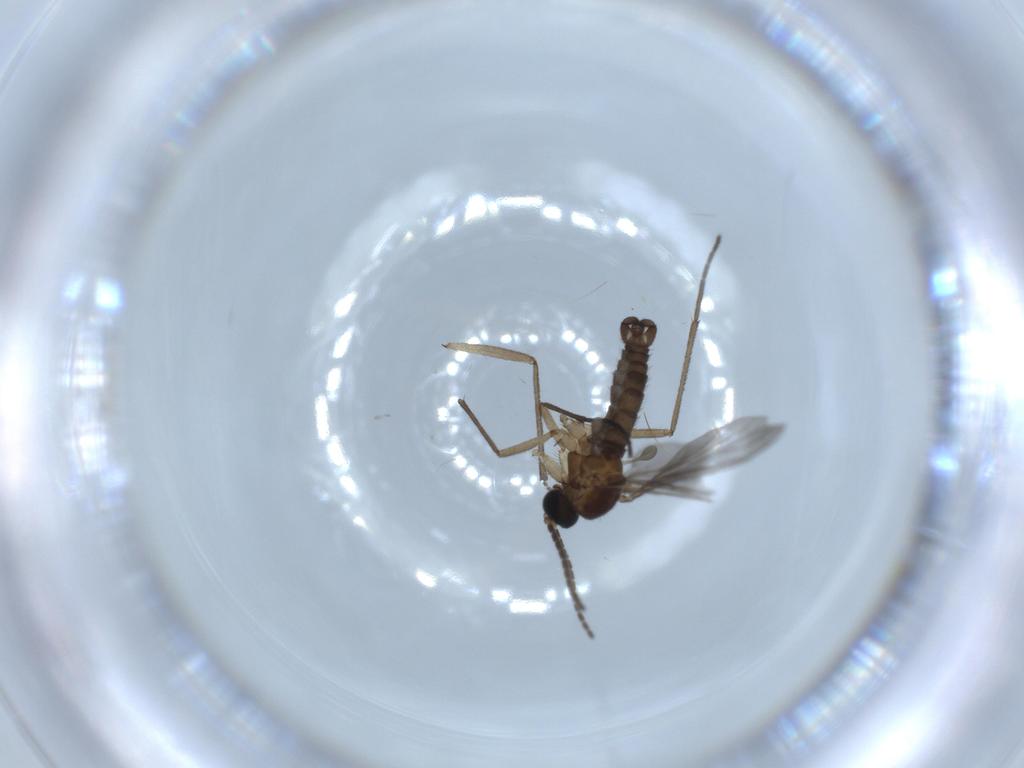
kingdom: Animalia
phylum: Arthropoda
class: Insecta
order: Diptera
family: Sciaridae
